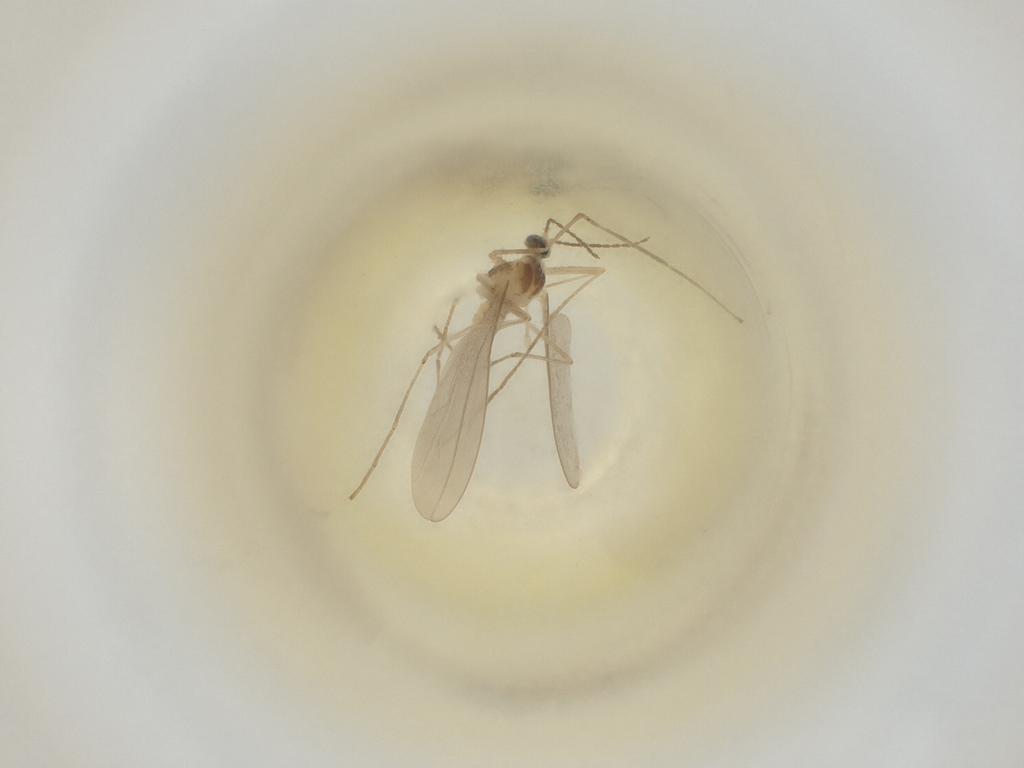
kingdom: Animalia
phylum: Arthropoda
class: Insecta
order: Diptera
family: Cecidomyiidae
